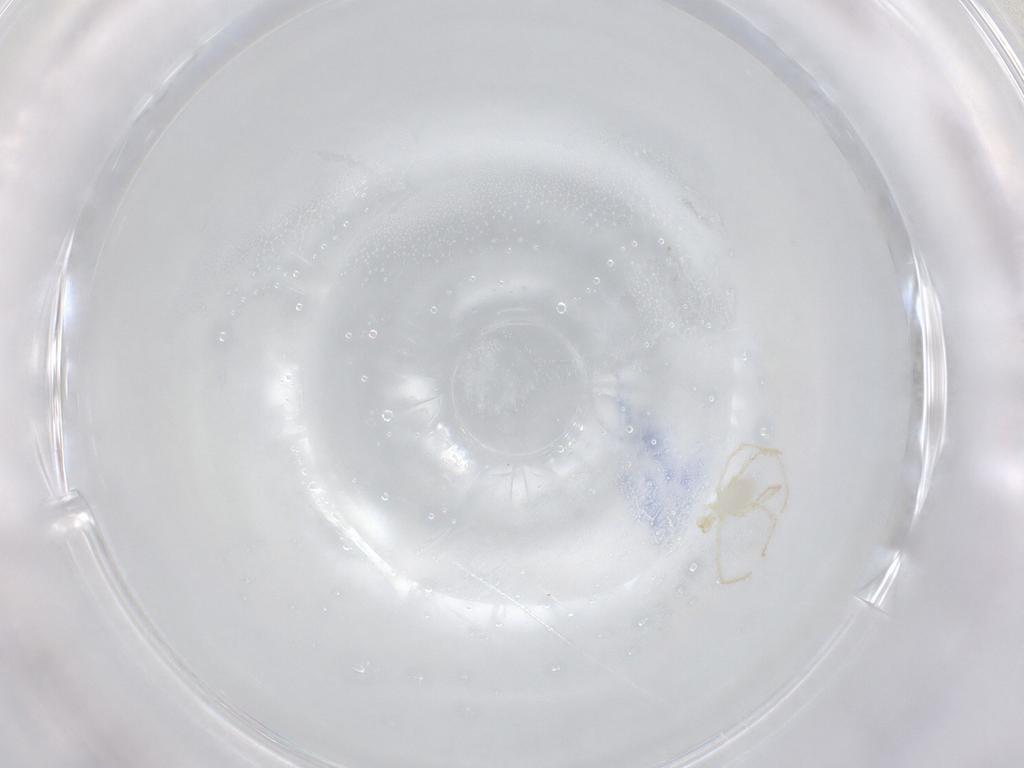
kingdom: Animalia
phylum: Arthropoda
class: Arachnida
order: Trombidiformes
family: Erythraeidae
